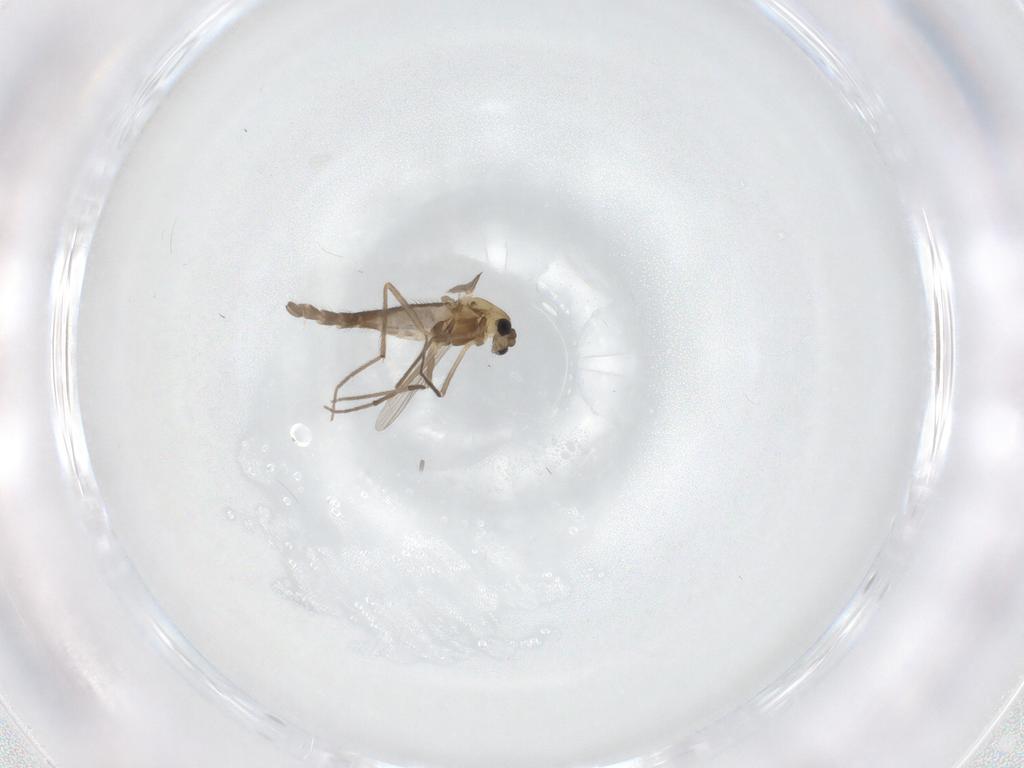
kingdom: Animalia
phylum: Arthropoda
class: Insecta
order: Diptera
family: Chironomidae
